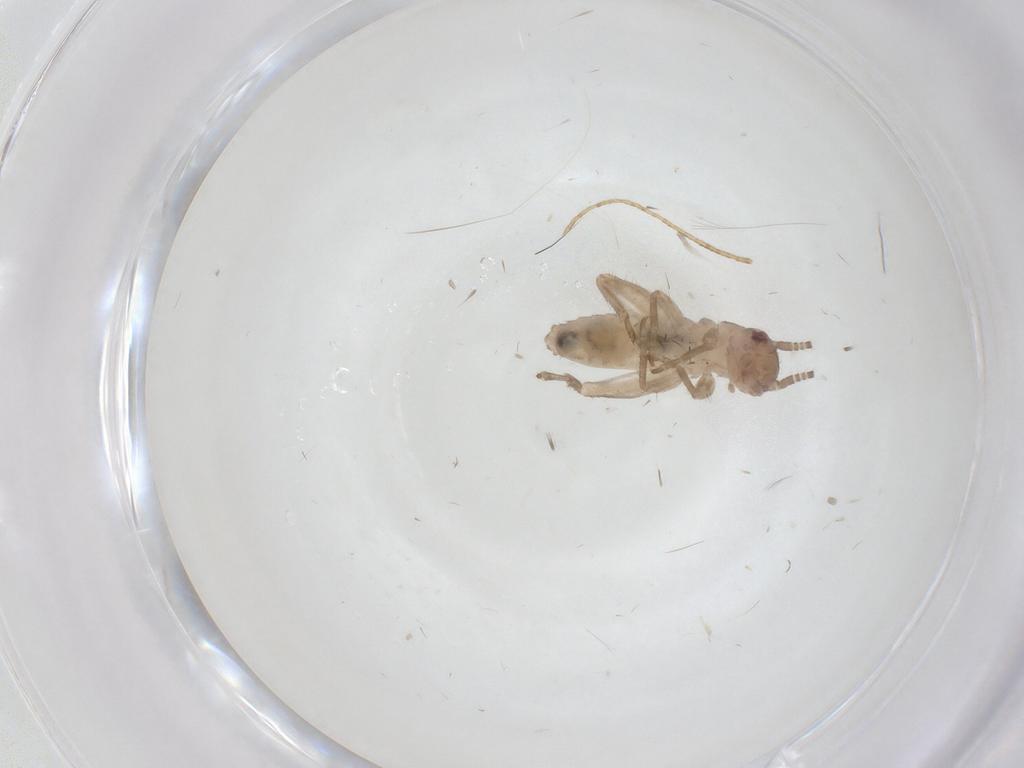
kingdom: Animalia
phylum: Arthropoda
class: Insecta
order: Orthoptera
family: Gryllidae
